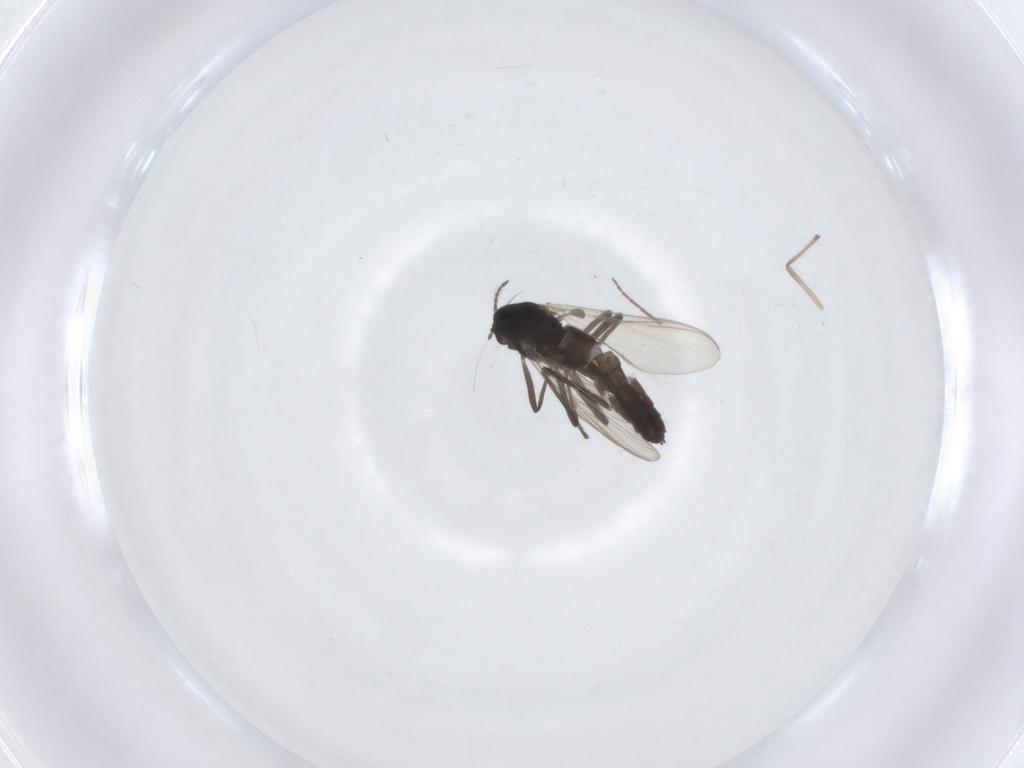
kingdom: Animalia
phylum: Arthropoda
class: Insecta
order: Diptera
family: Chironomidae
